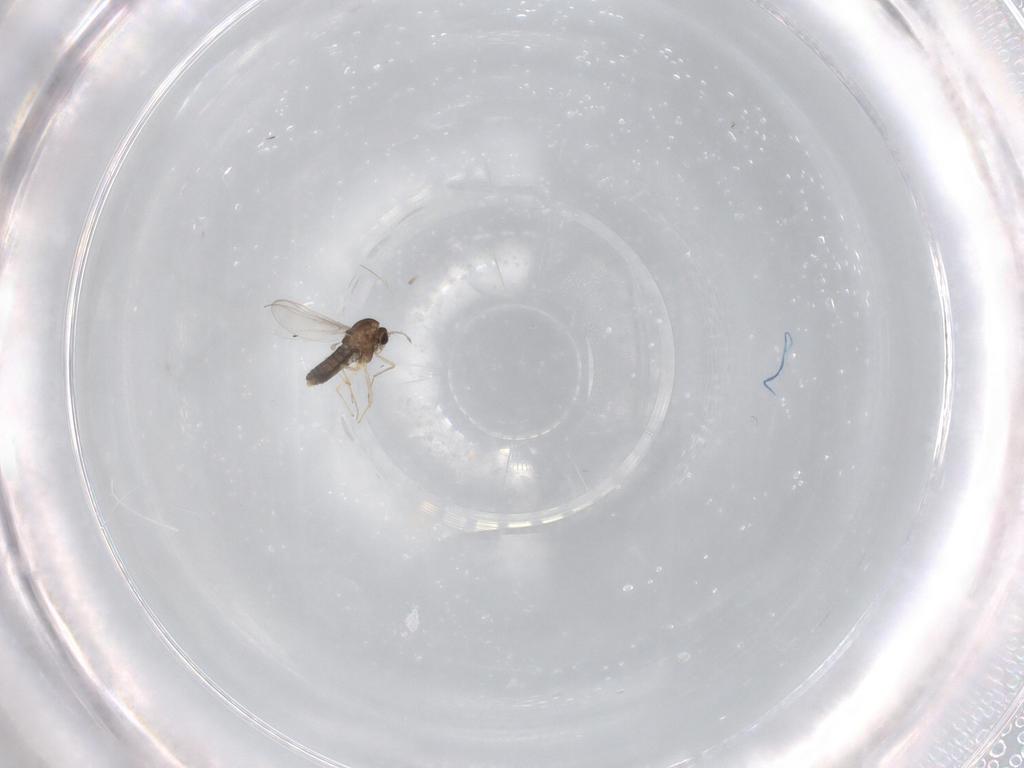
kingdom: Animalia
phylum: Arthropoda
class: Insecta
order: Diptera
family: Chironomidae
